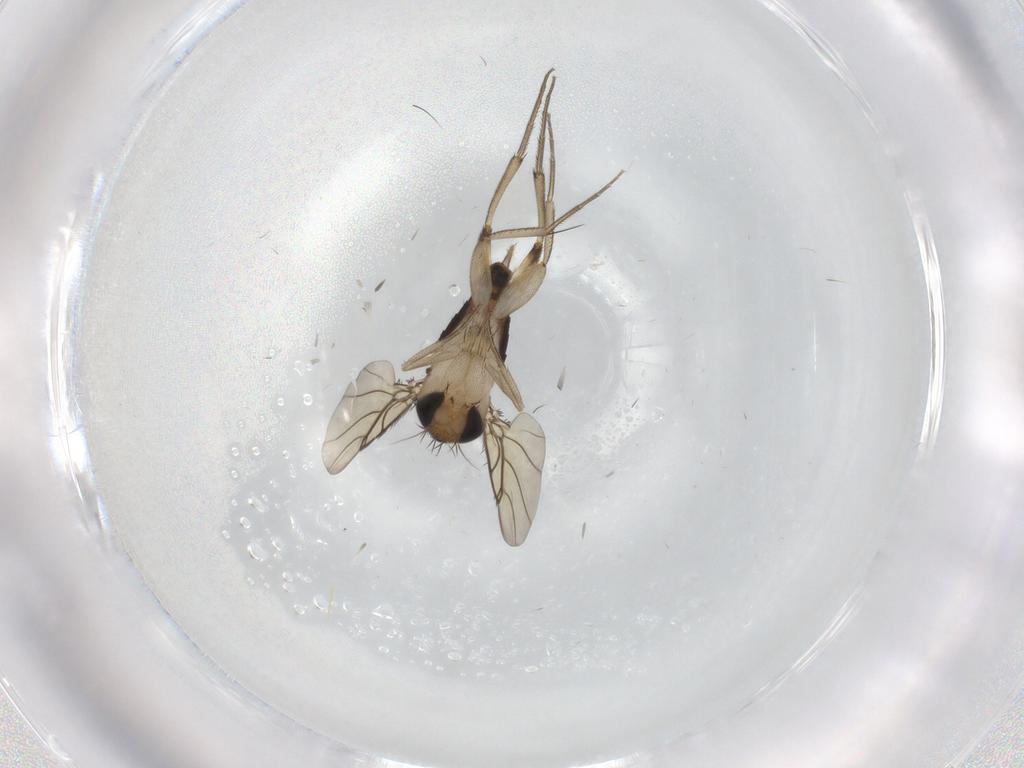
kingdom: Animalia
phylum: Arthropoda
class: Insecta
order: Diptera
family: Phoridae
